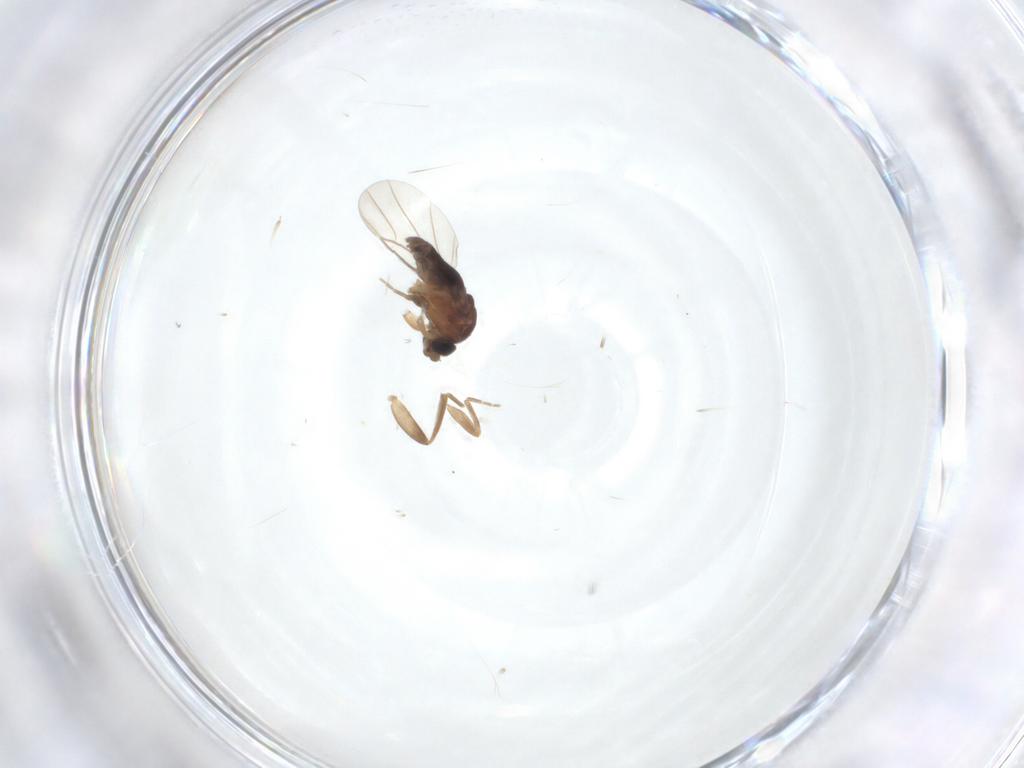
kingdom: Animalia
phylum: Arthropoda
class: Insecta
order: Diptera
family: Phoridae
